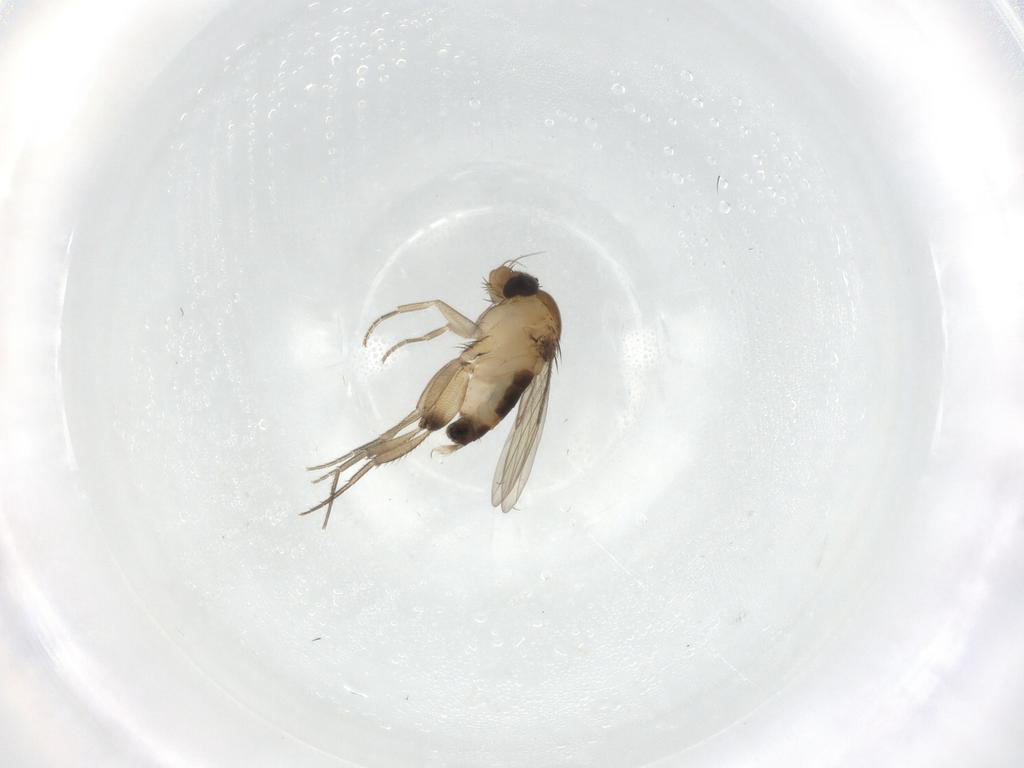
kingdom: Animalia
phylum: Arthropoda
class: Insecta
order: Diptera
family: Phoridae
